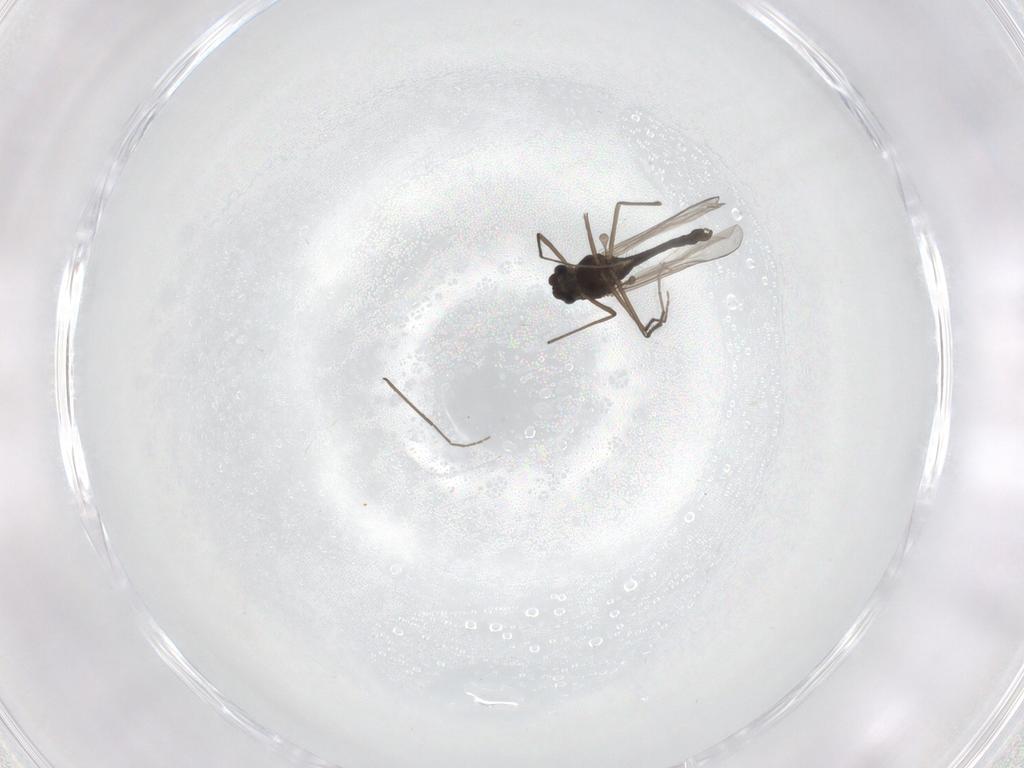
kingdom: Animalia
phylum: Arthropoda
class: Insecta
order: Diptera
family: Chironomidae
